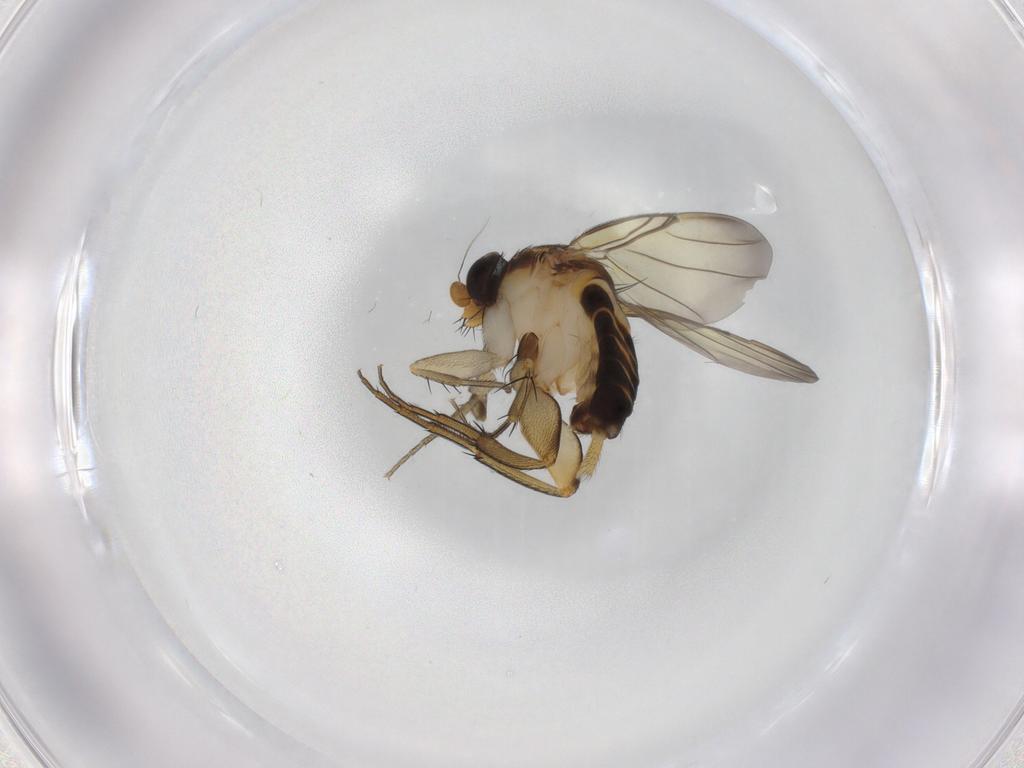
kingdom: Animalia
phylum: Arthropoda
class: Insecta
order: Diptera
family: Phoridae
